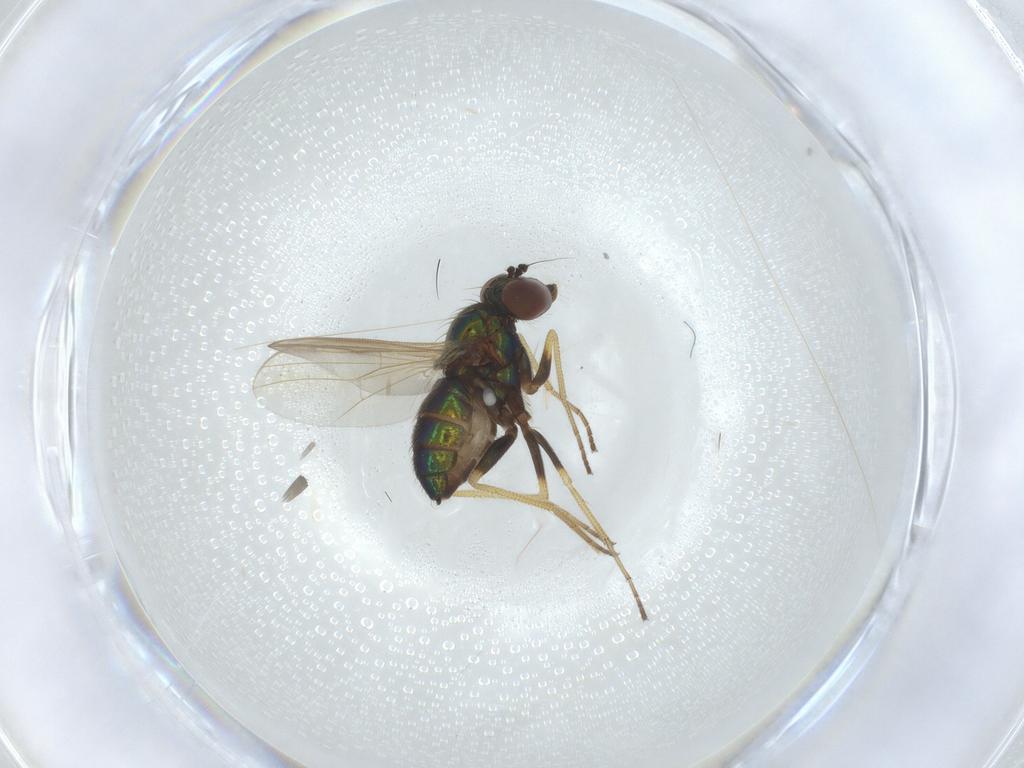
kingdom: Animalia
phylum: Arthropoda
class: Insecta
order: Diptera
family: Dolichopodidae
